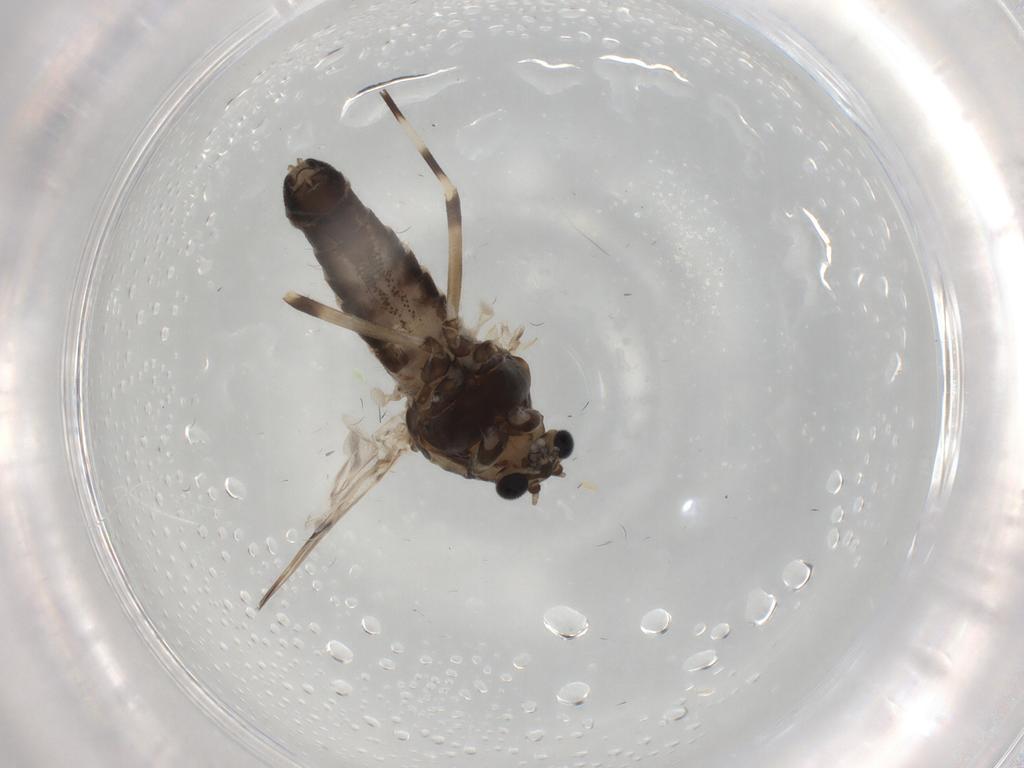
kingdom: Animalia
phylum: Arthropoda
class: Insecta
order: Diptera
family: Chironomidae
